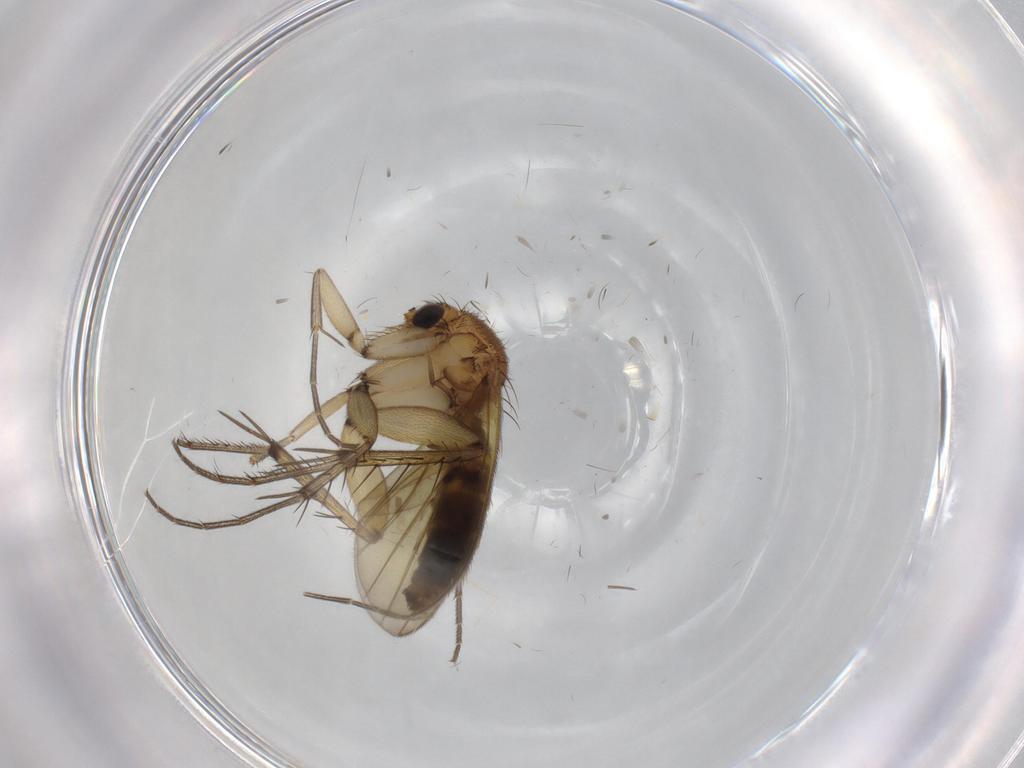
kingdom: Animalia
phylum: Arthropoda
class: Insecta
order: Diptera
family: Mycetophilidae
